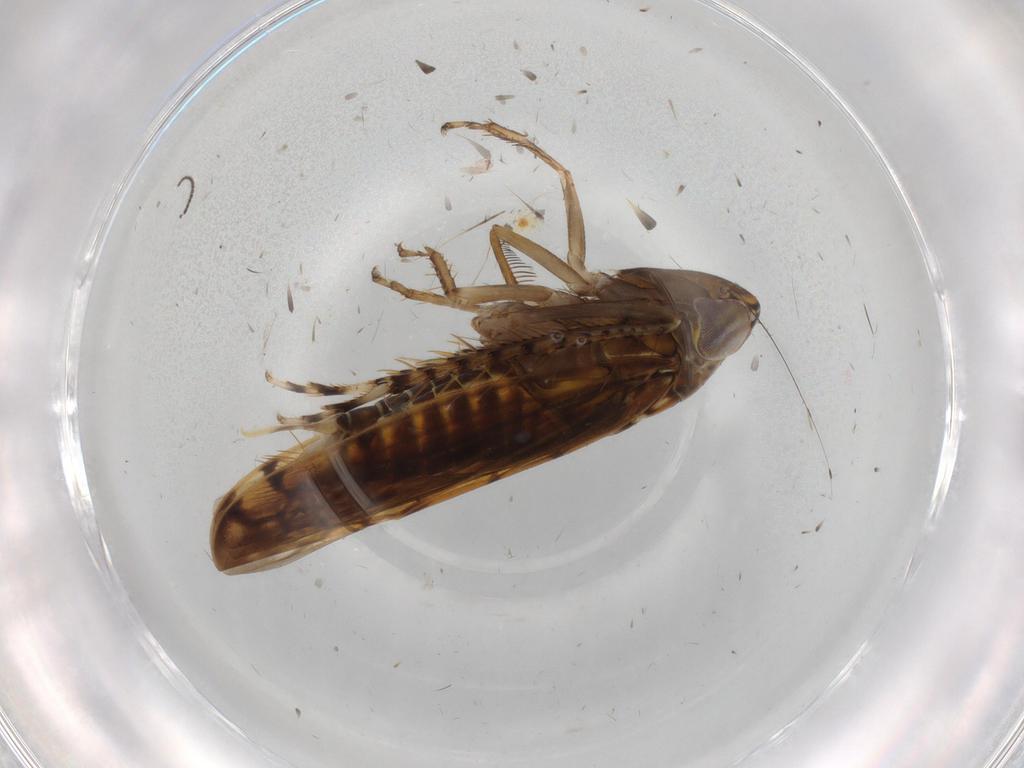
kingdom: Animalia
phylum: Arthropoda
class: Insecta
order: Hemiptera
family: Cicadellidae
